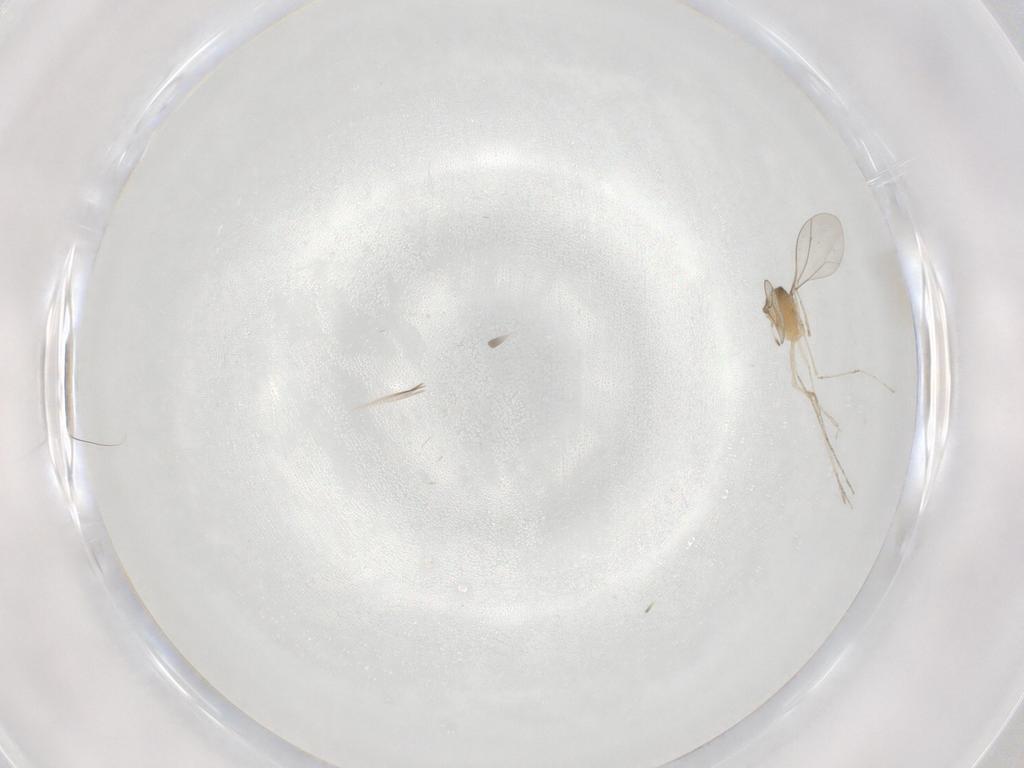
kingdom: Animalia
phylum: Arthropoda
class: Insecta
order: Diptera
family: Cecidomyiidae
